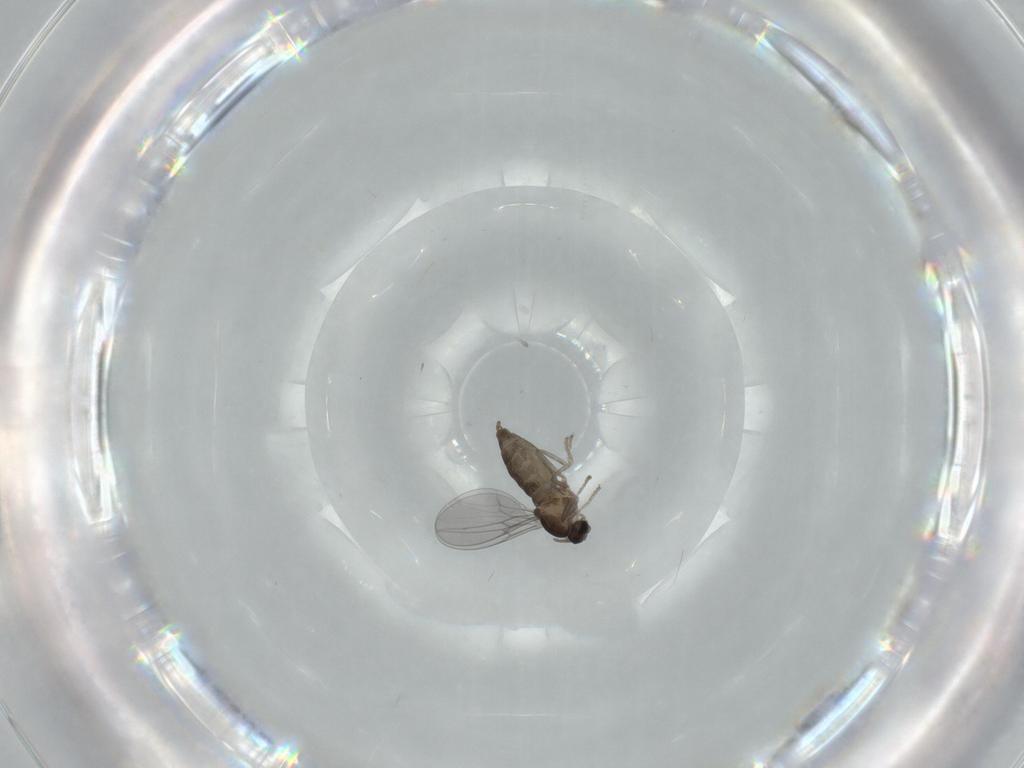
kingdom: Animalia
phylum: Arthropoda
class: Insecta
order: Diptera
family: Cecidomyiidae
